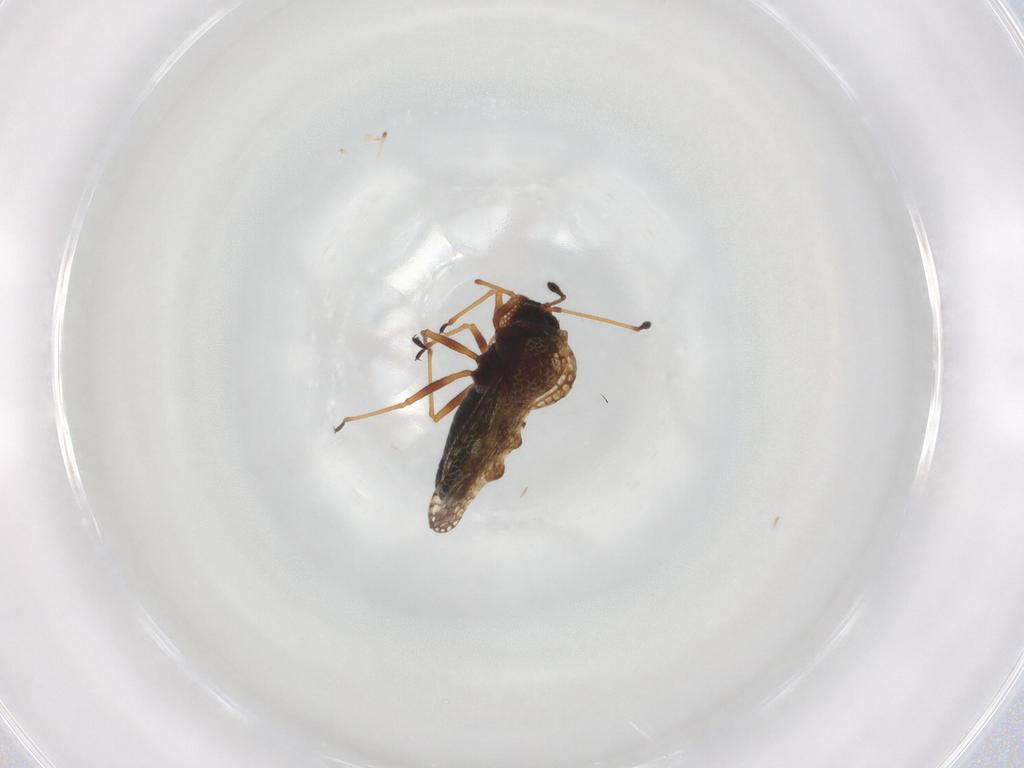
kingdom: Animalia
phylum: Arthropoda
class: Insecta
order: Hemiptera
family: Tingidae
